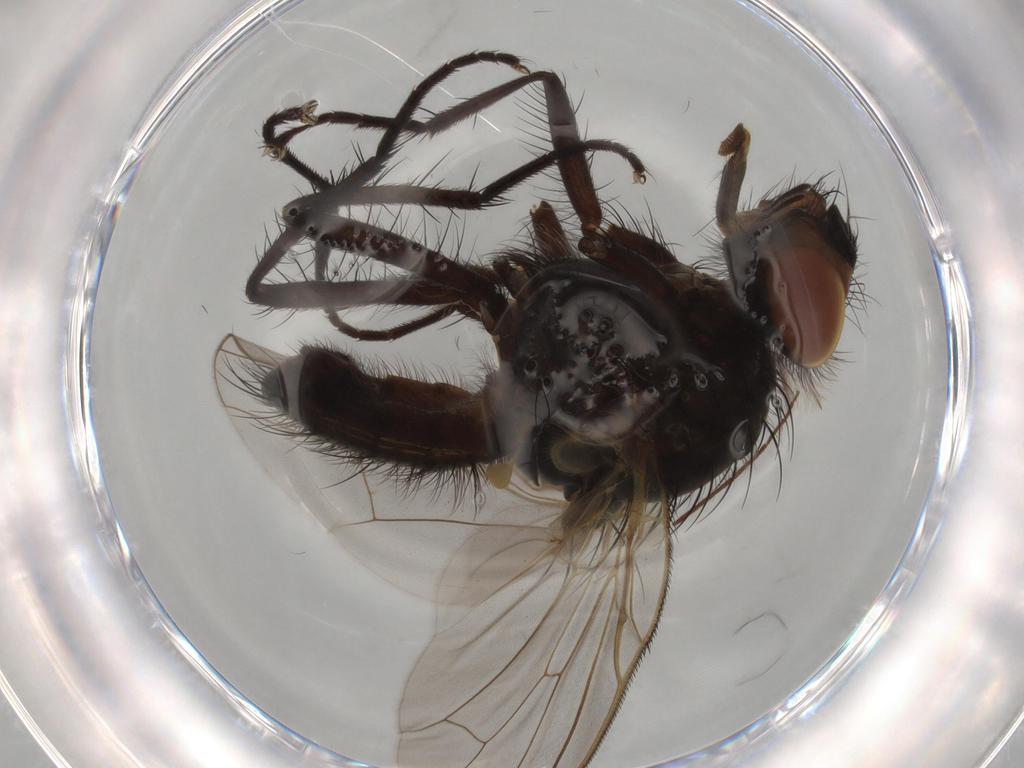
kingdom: Animalia
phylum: Arthropoda
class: Insecta
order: Diptera
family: Anthomyiidae
